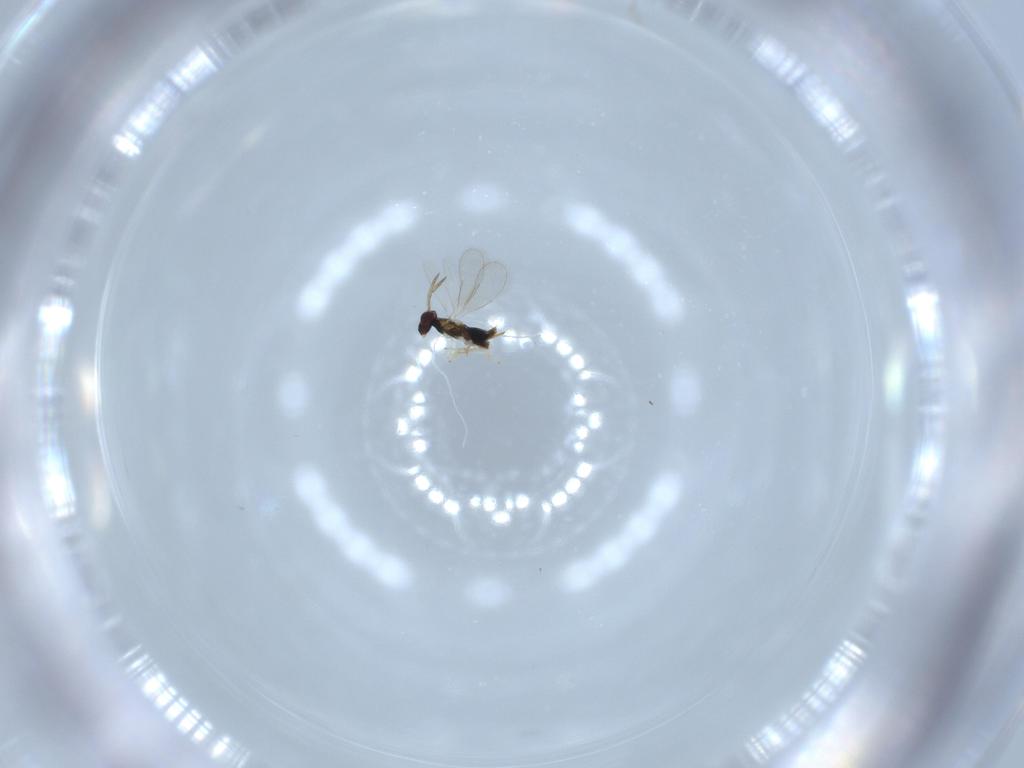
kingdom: Animalia
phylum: Arthropoda
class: Insecta
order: Hymenoptera
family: Aphelinidae
